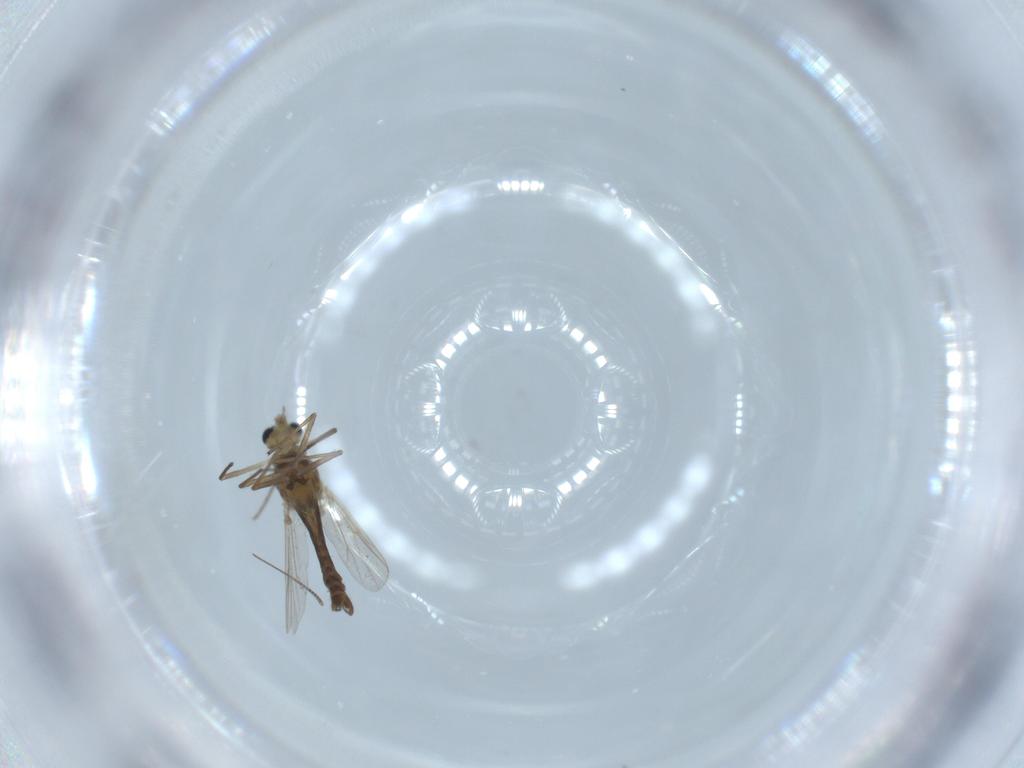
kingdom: Animalia
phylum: Arthropoda
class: Insecta
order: Diptera
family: Chironomidae
